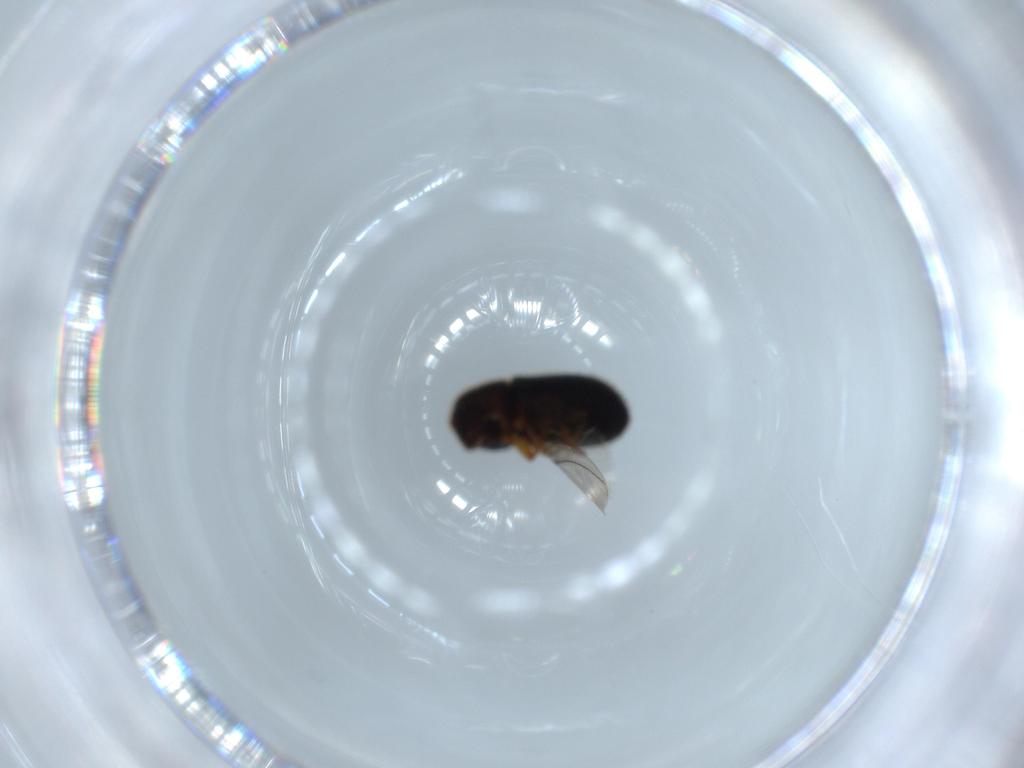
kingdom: Animalia
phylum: Arthropoda
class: Insecta
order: Coleoptera
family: Curculionidae
